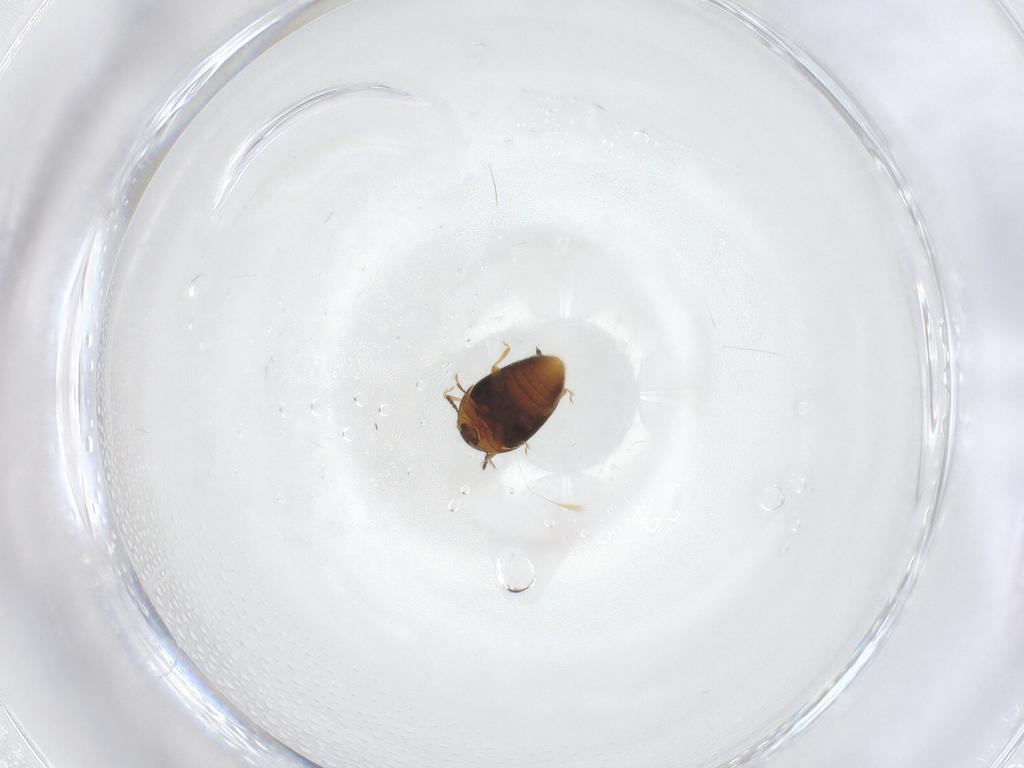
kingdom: Animalia
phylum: Arthropoda
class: Insecta
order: Coleoptera
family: Corylophidae
